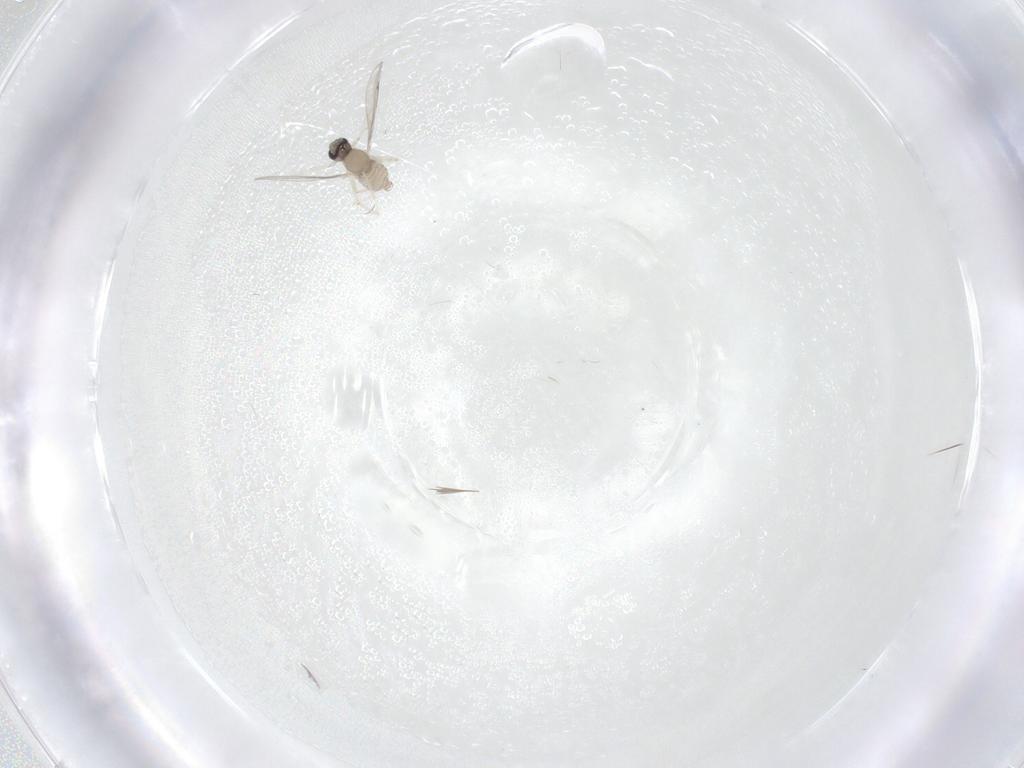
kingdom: Animalia
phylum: Arthropoda
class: Insecta
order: Diptera
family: Cecidomyiidae
